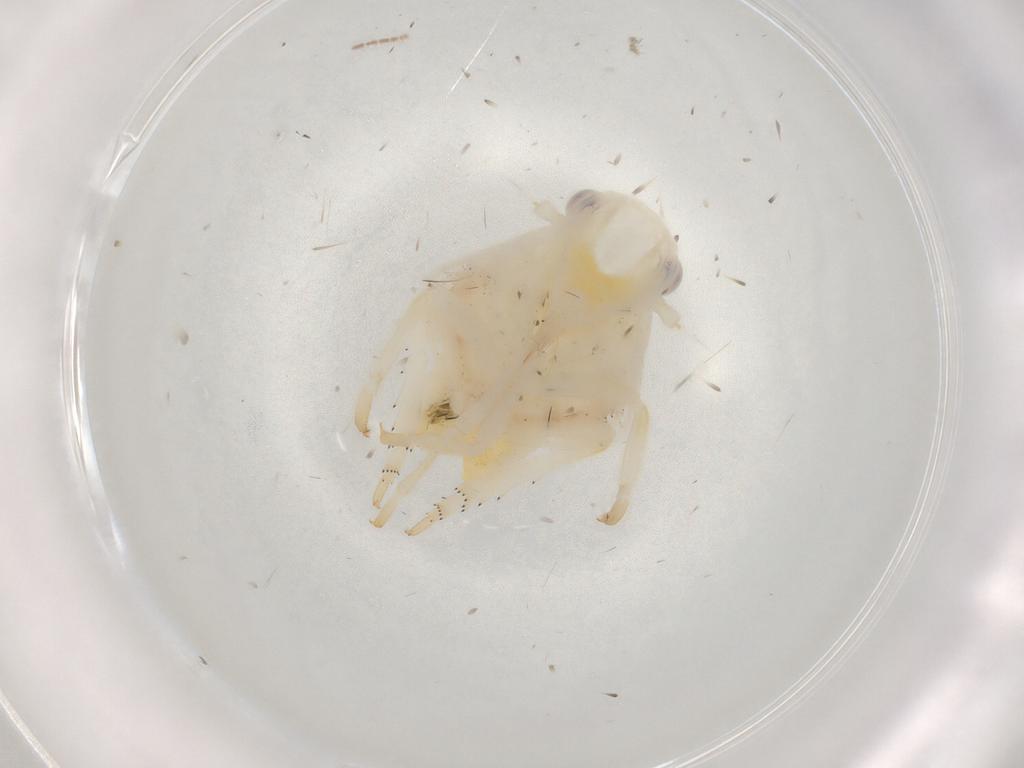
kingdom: Animalia
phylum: Arthropoda
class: Insecta
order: Hemiptera
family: Flatidae
